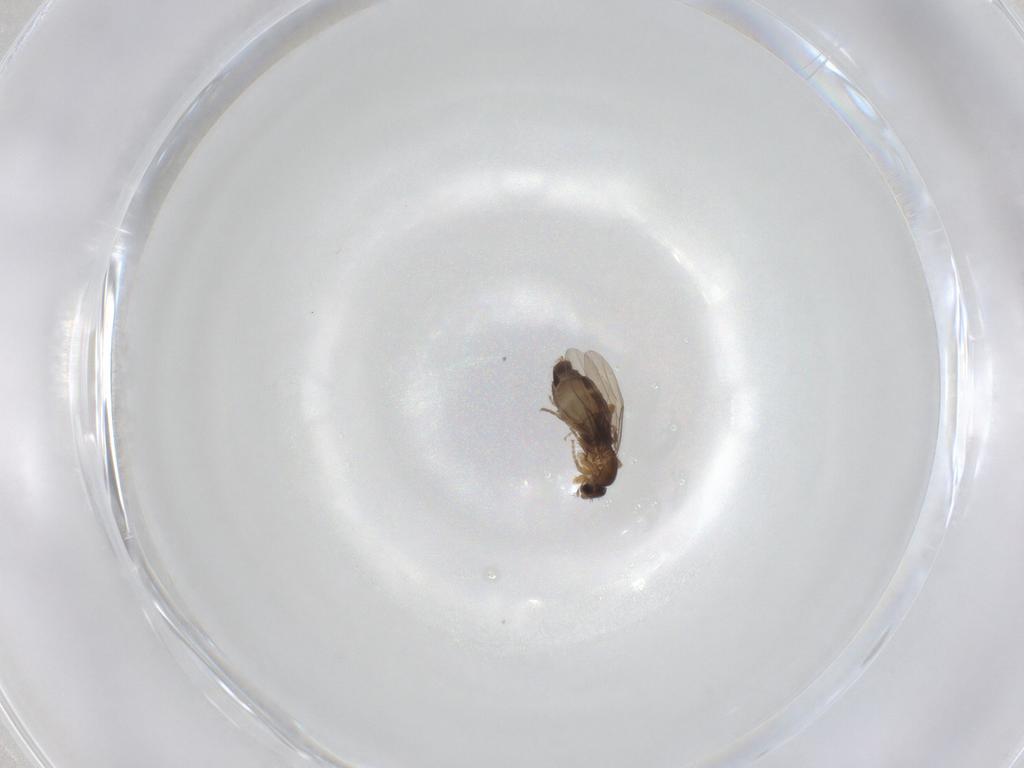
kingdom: Animalia
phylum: Arthropoda
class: Insecta
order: Diptera
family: Phoridae
